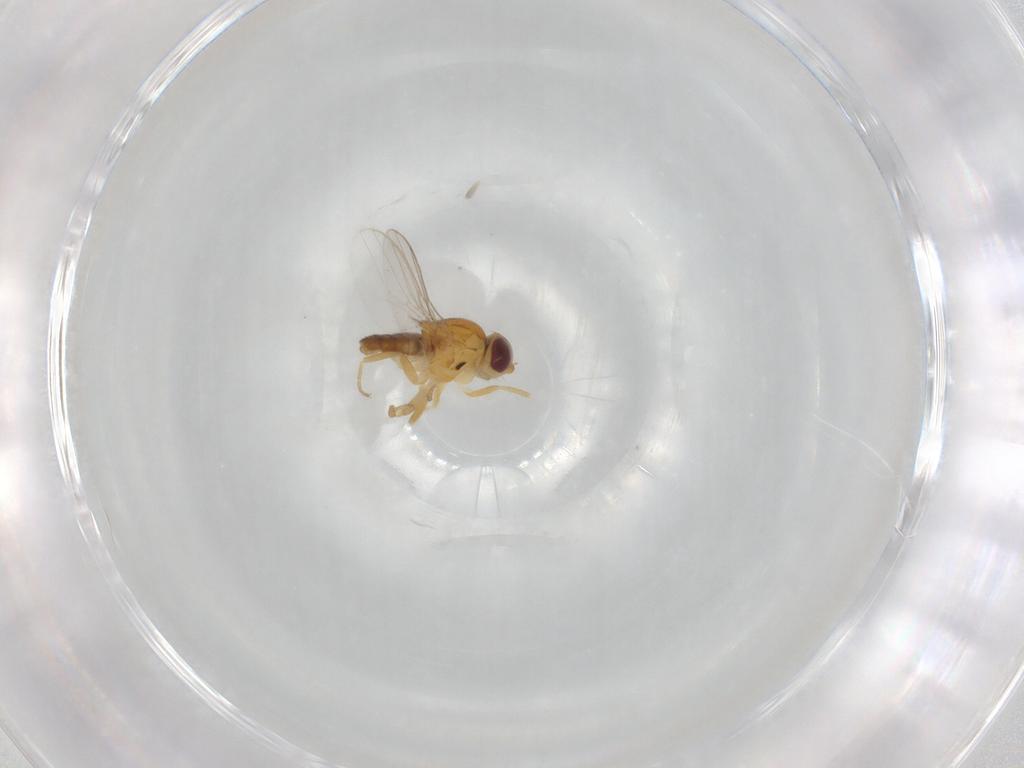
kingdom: Animalia
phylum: Arthropoda
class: Insecta
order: Diptera
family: Chloropidae
